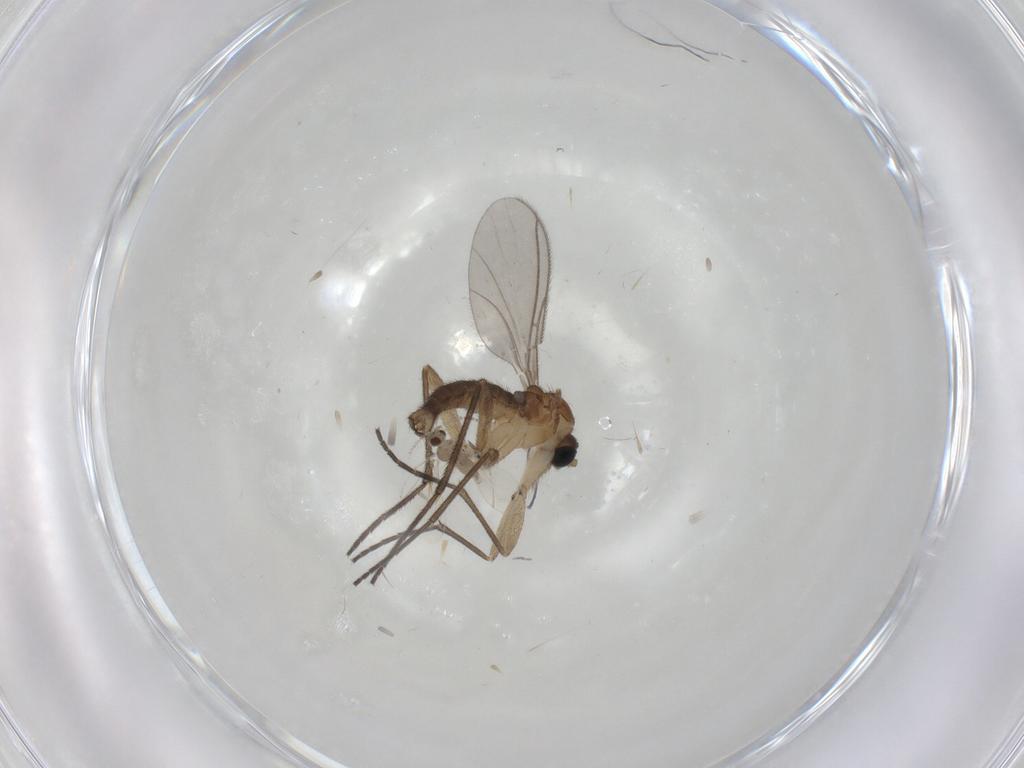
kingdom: Animalia
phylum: Arthropoda
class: Insecta
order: Diptera
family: Sciaridae
